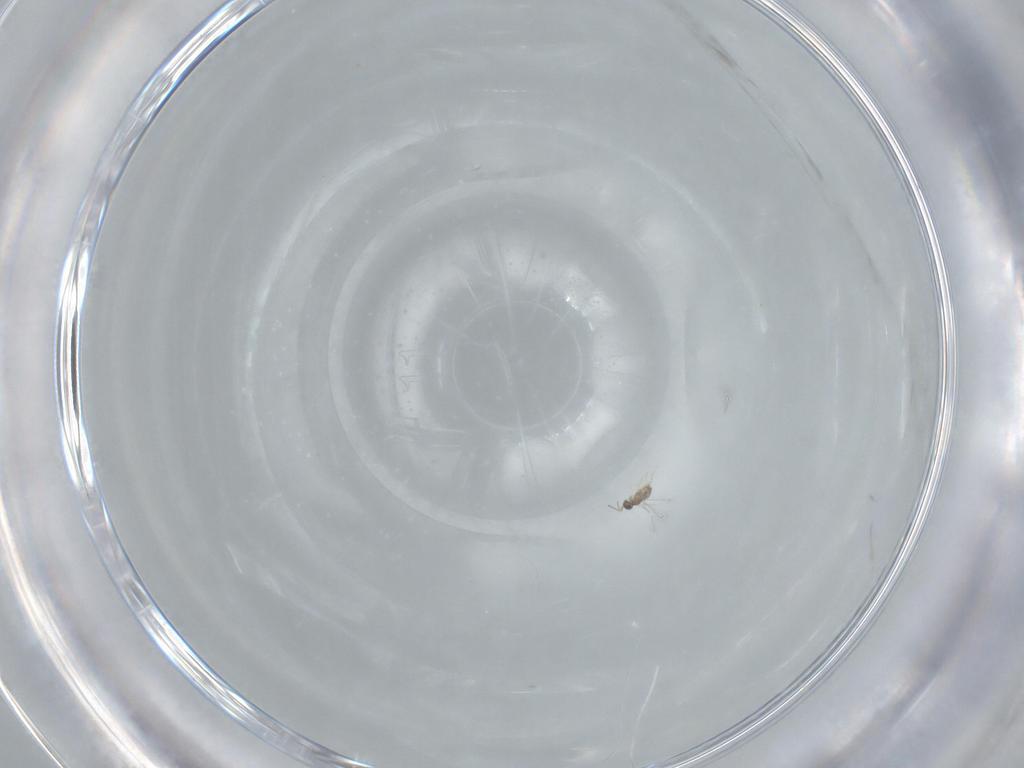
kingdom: Animalia
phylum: Arthropoda
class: Insecta
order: Hymenoptera
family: Mymaridae
